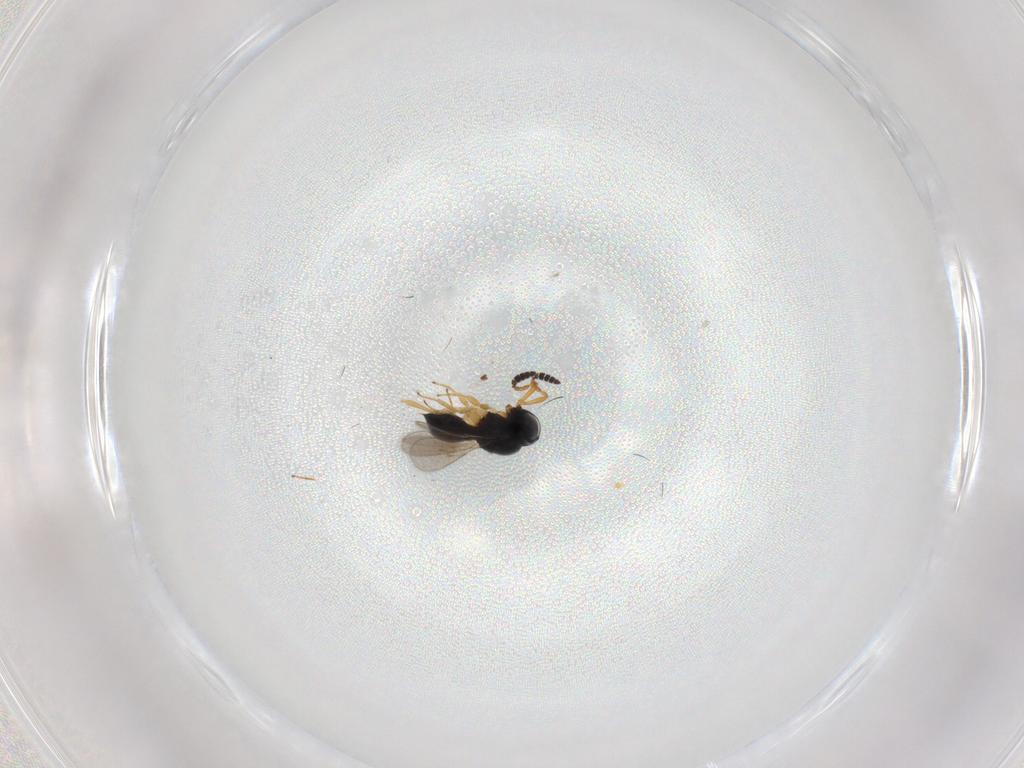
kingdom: Animalia
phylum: Arthropoda
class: Insecta
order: Hymenoptera
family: Scelionidae
